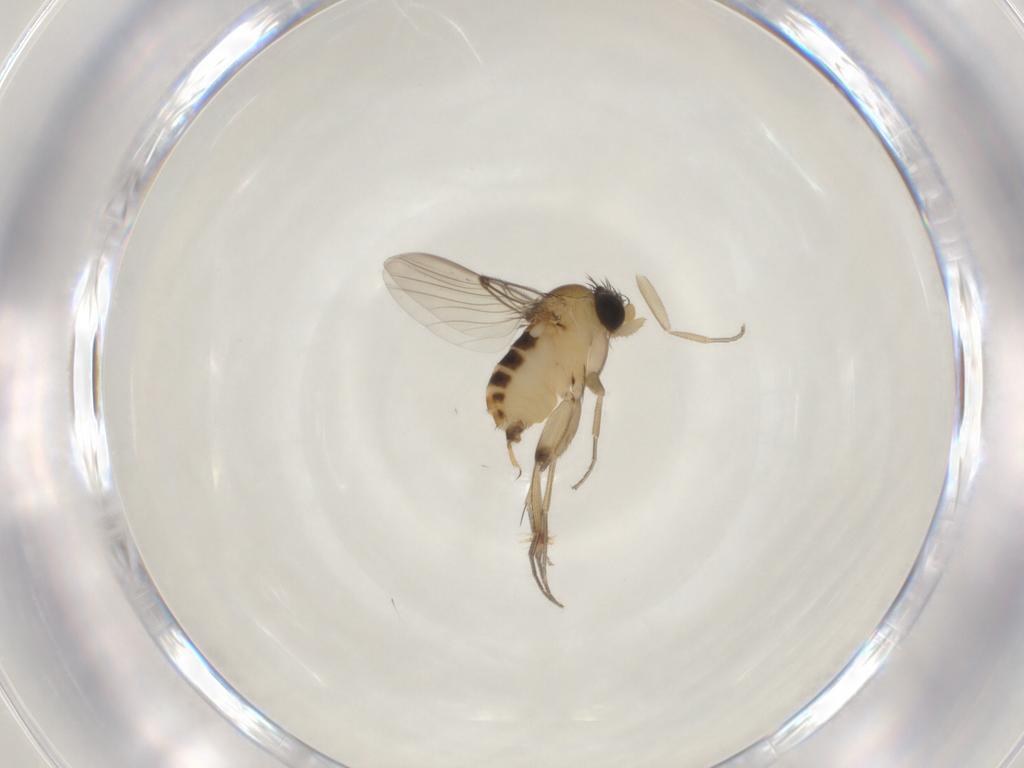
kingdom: Animalia
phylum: Arthropoda
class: Insecta
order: Diptera
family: Phoridae
